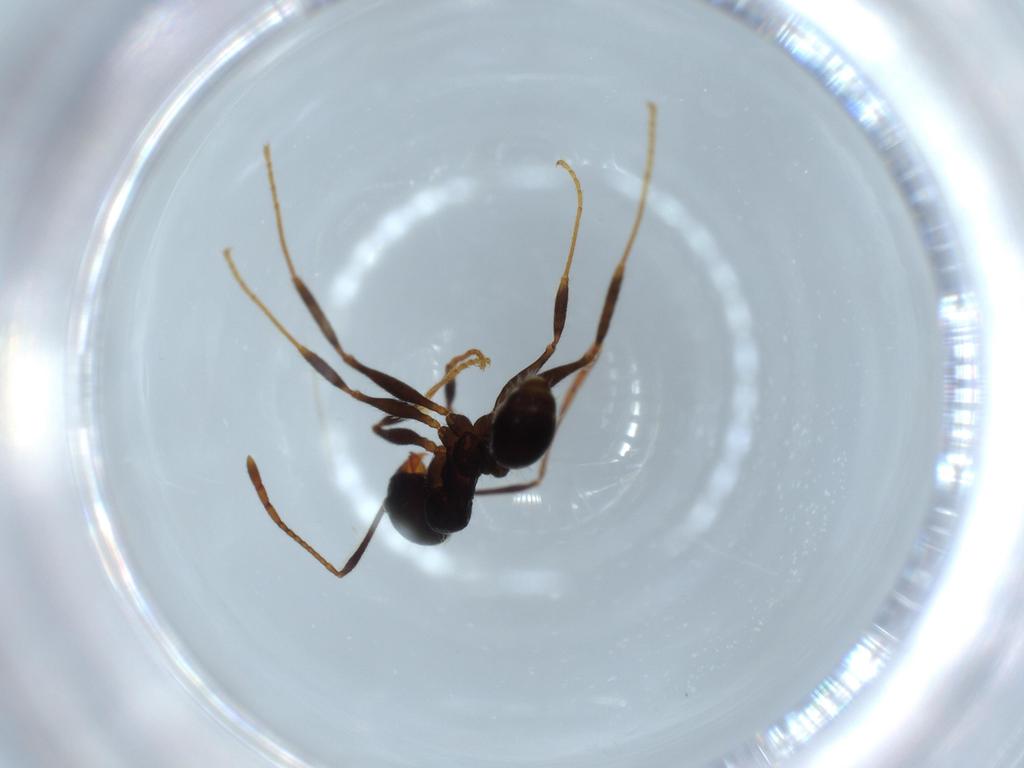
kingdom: Animalia
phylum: Arthropoda
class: Insecta
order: Hymenoptera
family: Formicidae
